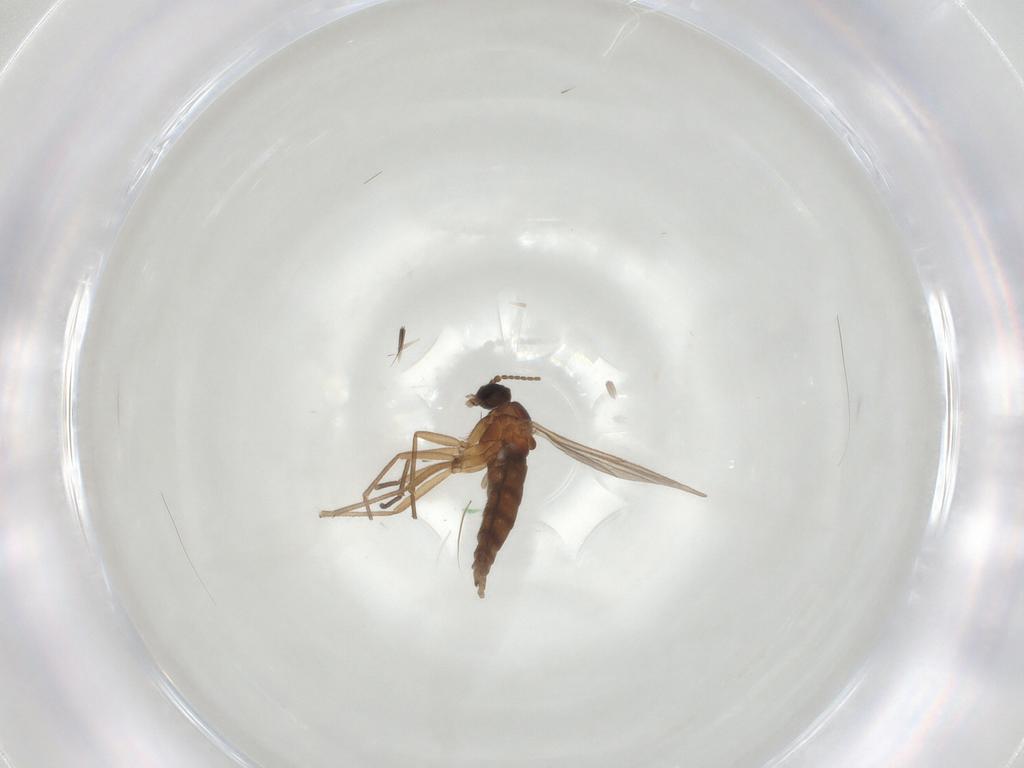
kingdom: Animalia
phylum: Arthropoda
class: Insecta
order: Diptera
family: Sciaridae
